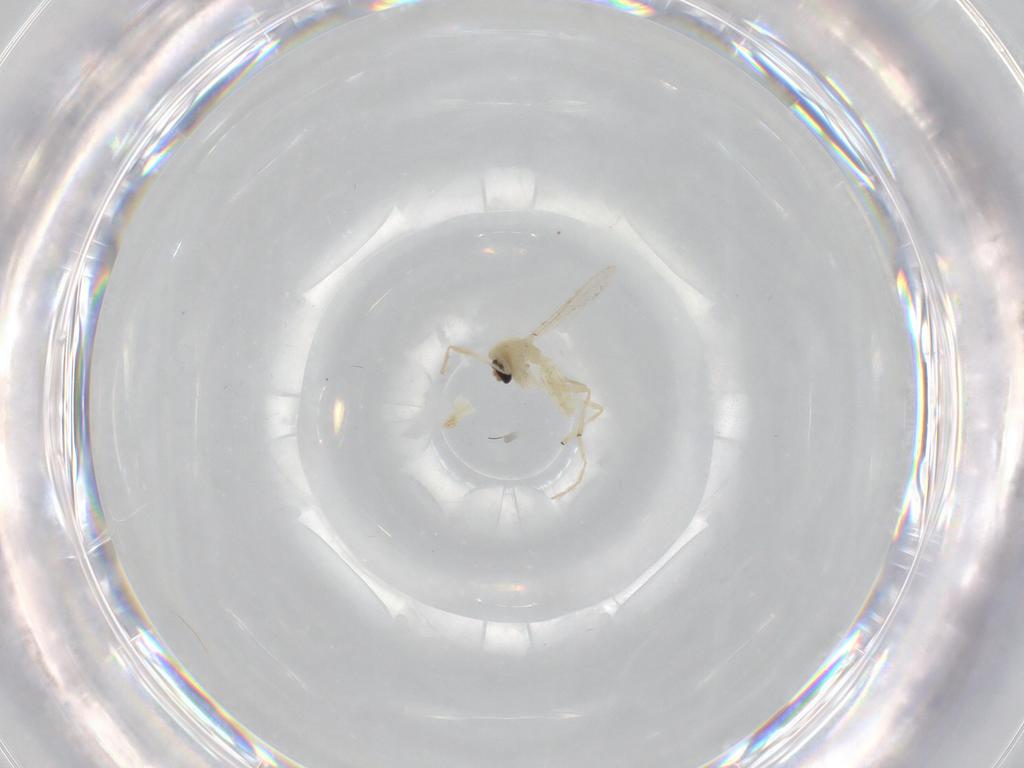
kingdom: Animalia
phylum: Arthropoda
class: Insecta
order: Diptera
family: Chironomidae
